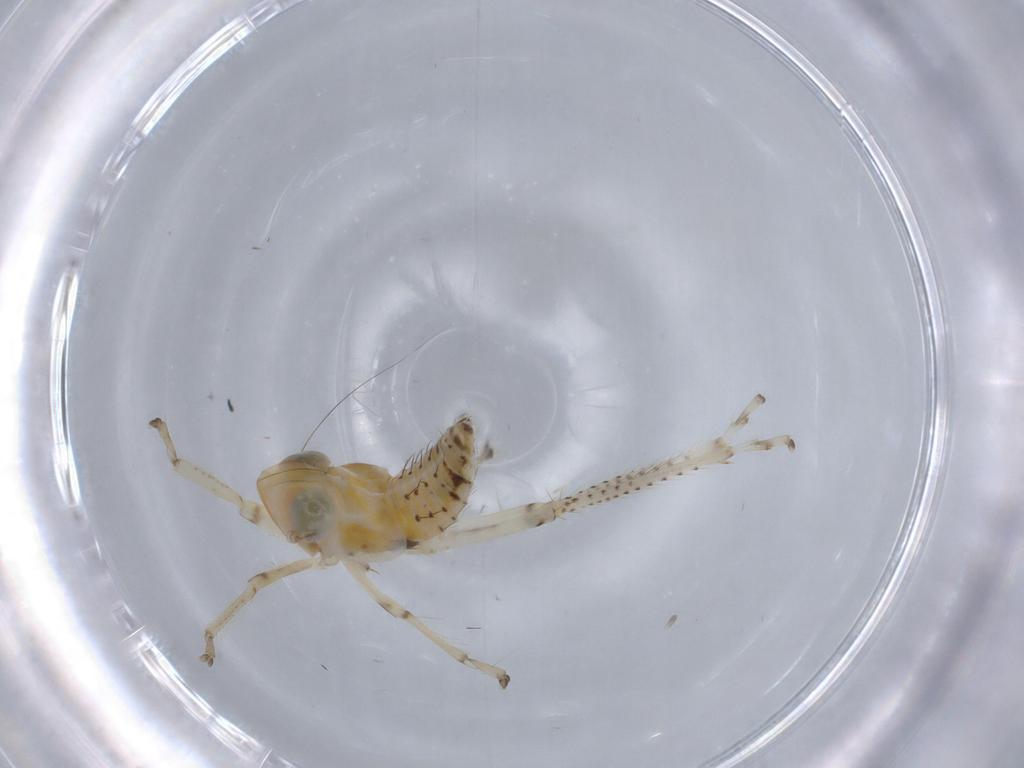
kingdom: Animalia
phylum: Arthropoda
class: Insecta
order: Hemiptera
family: Cicadellidae
